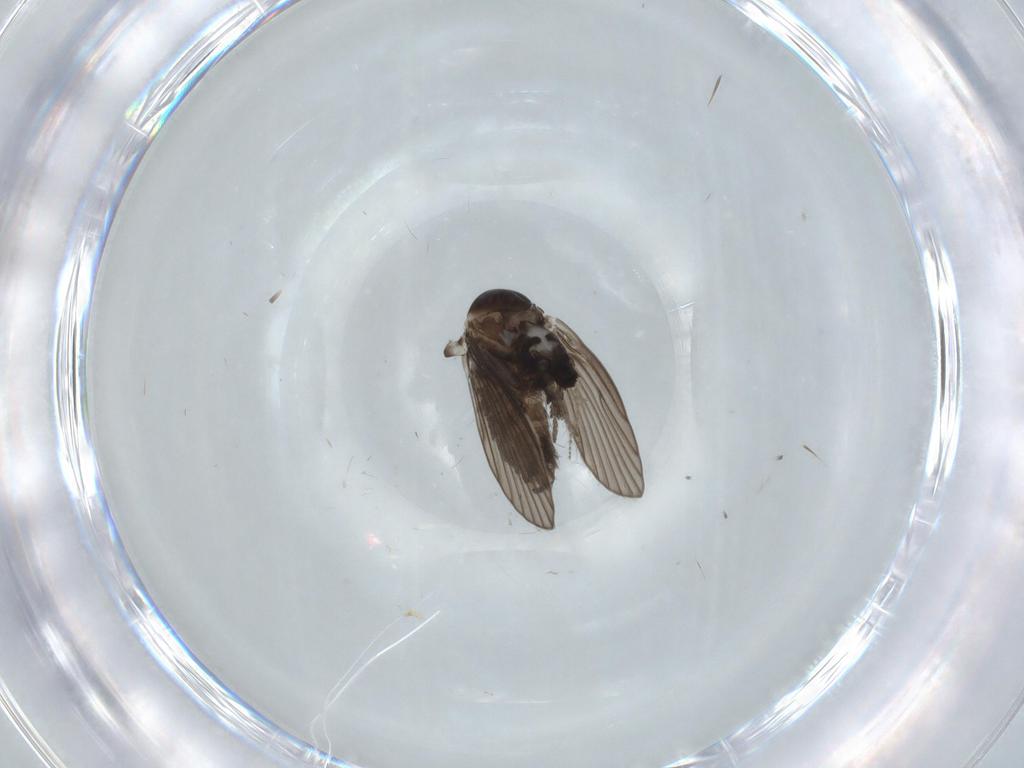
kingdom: Animalia
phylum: Arthropoda
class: Insecta
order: Diptera
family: Psychodidae
